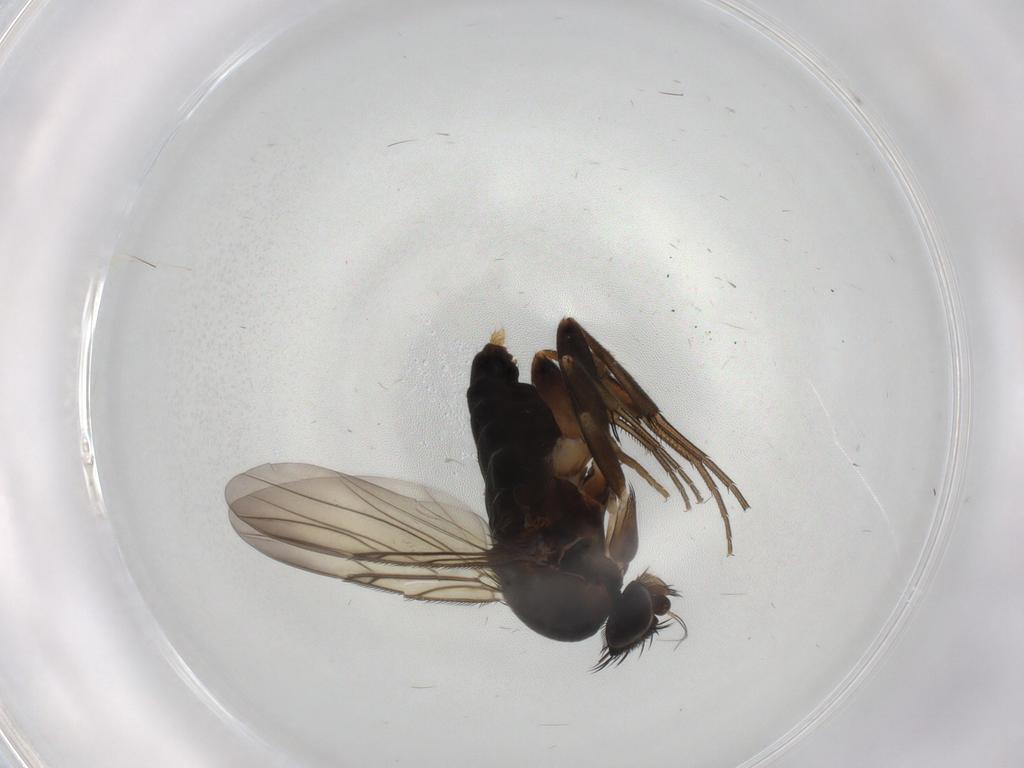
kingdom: Animalia
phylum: Arthropoda
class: Insecta
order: Diptera
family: Phoridae
